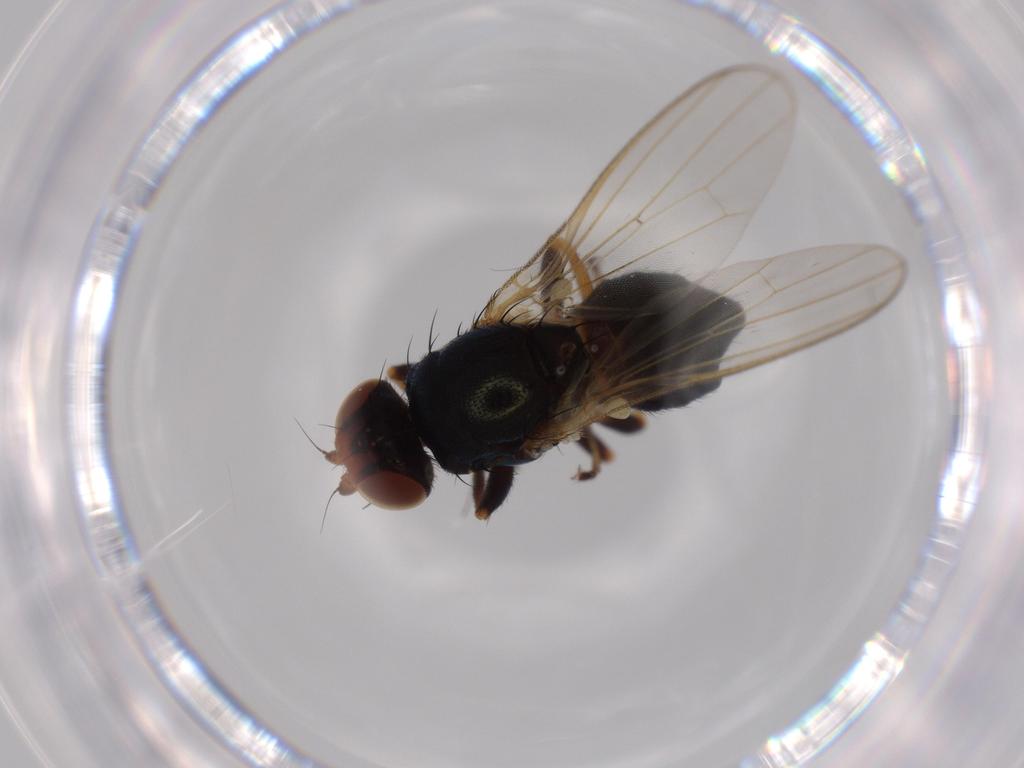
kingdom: Animalia
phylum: Arthropoda
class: Insecta
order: Diptera
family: Piophilidae
